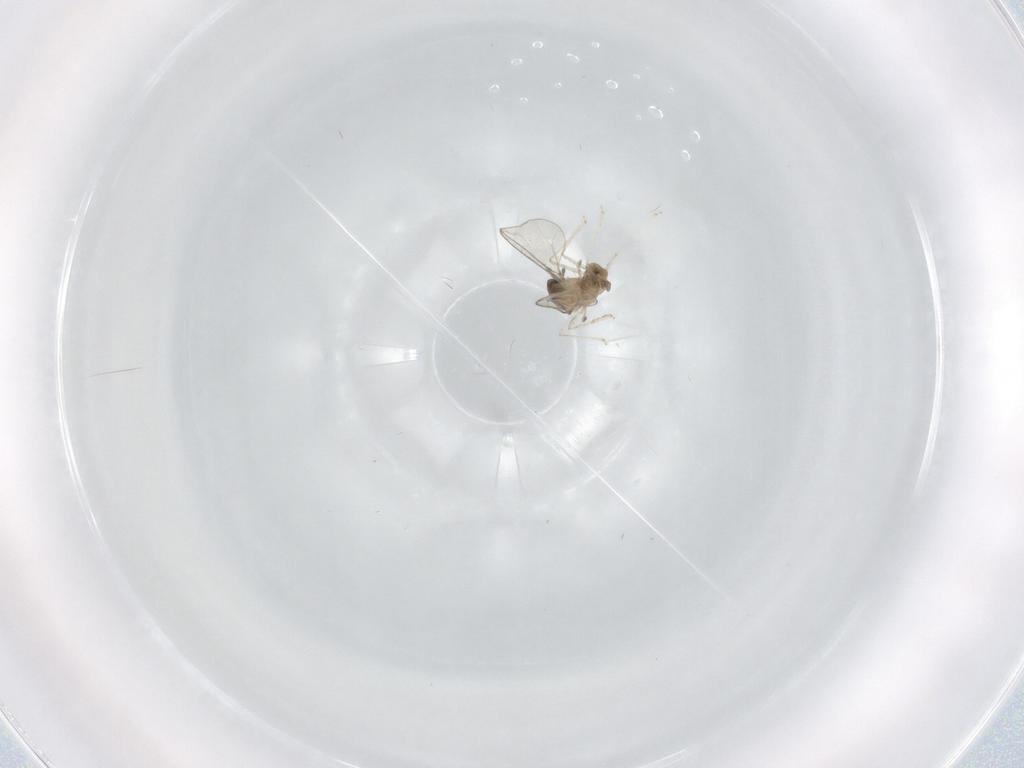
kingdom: Animalia
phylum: Arthropoda
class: Insecta
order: Diptera
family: Cecidomyiidae
